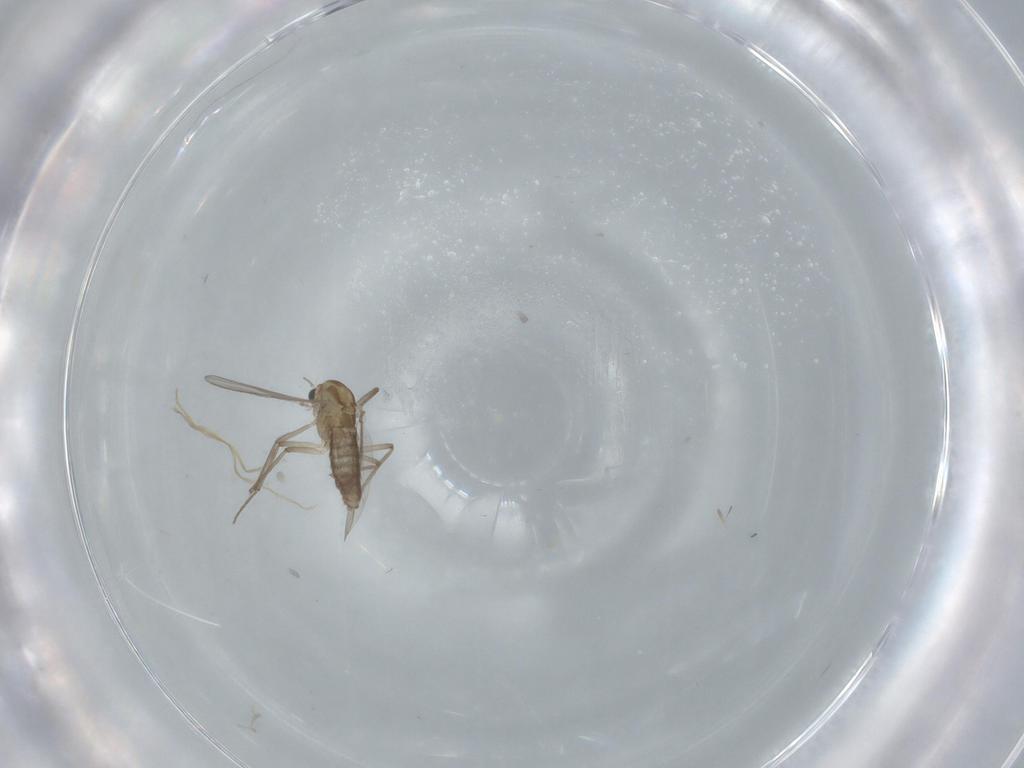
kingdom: Animalia
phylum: Arthropoda
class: Insecta
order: Diptera
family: Chironomidae
